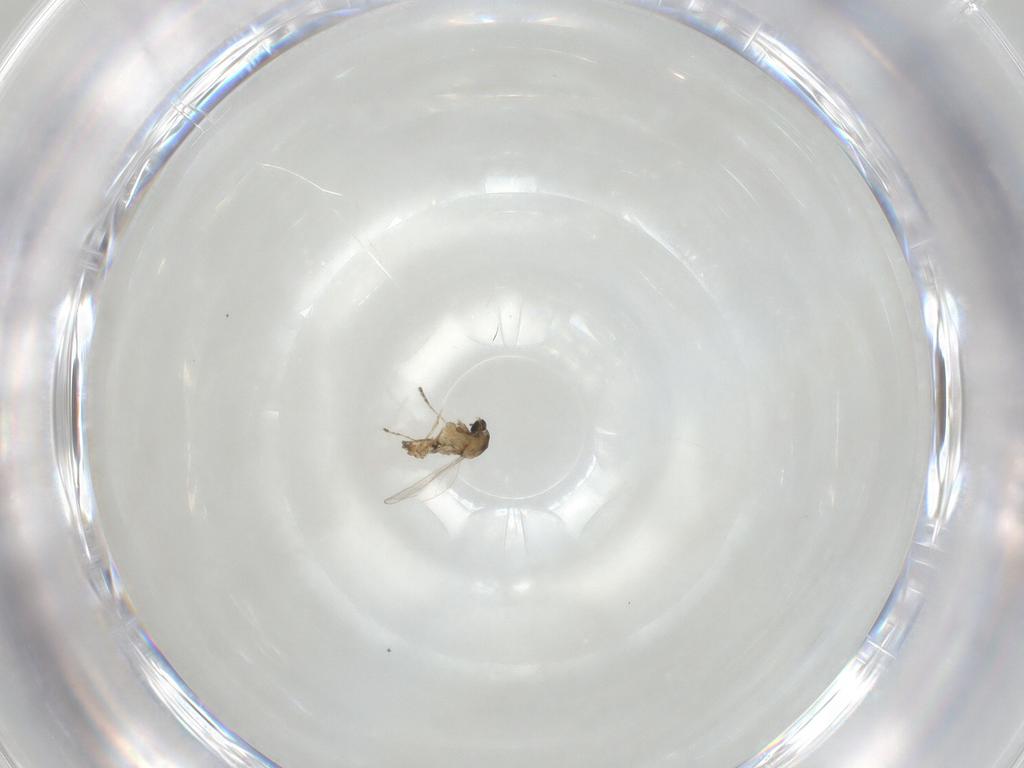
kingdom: Animalia
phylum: Arthropoda
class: Insecta
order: Diptera
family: Cecidomyiidae
